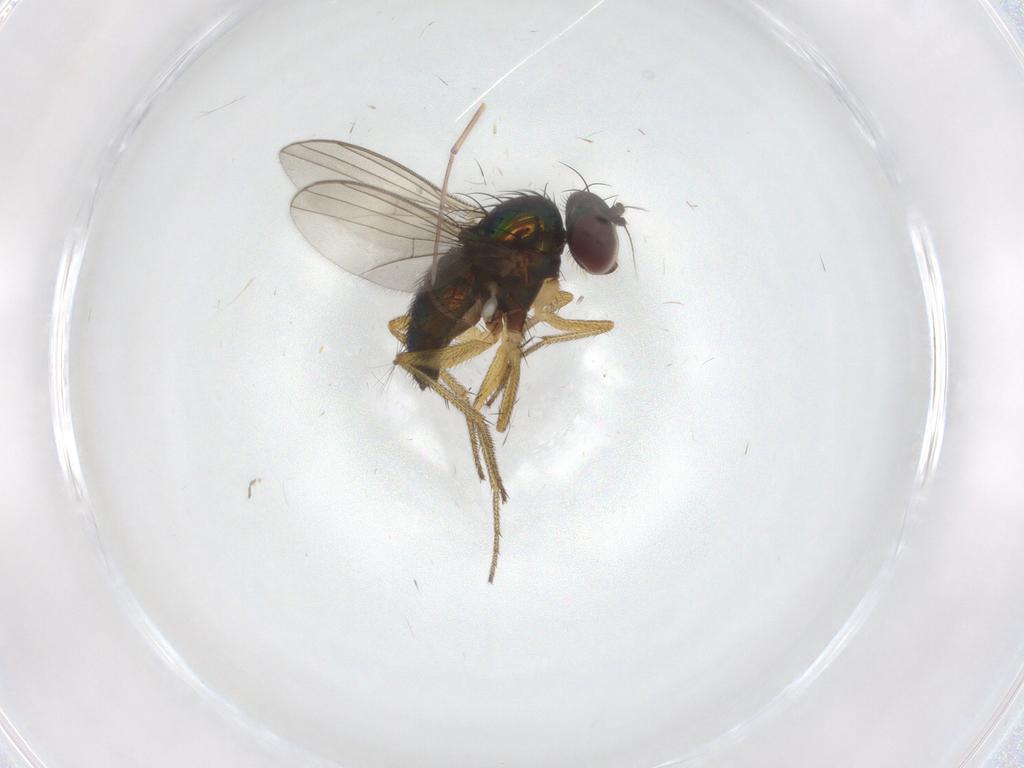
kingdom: Animalia
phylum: Arthropoda
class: Insecta
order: Diptera
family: Dolichopodidae
